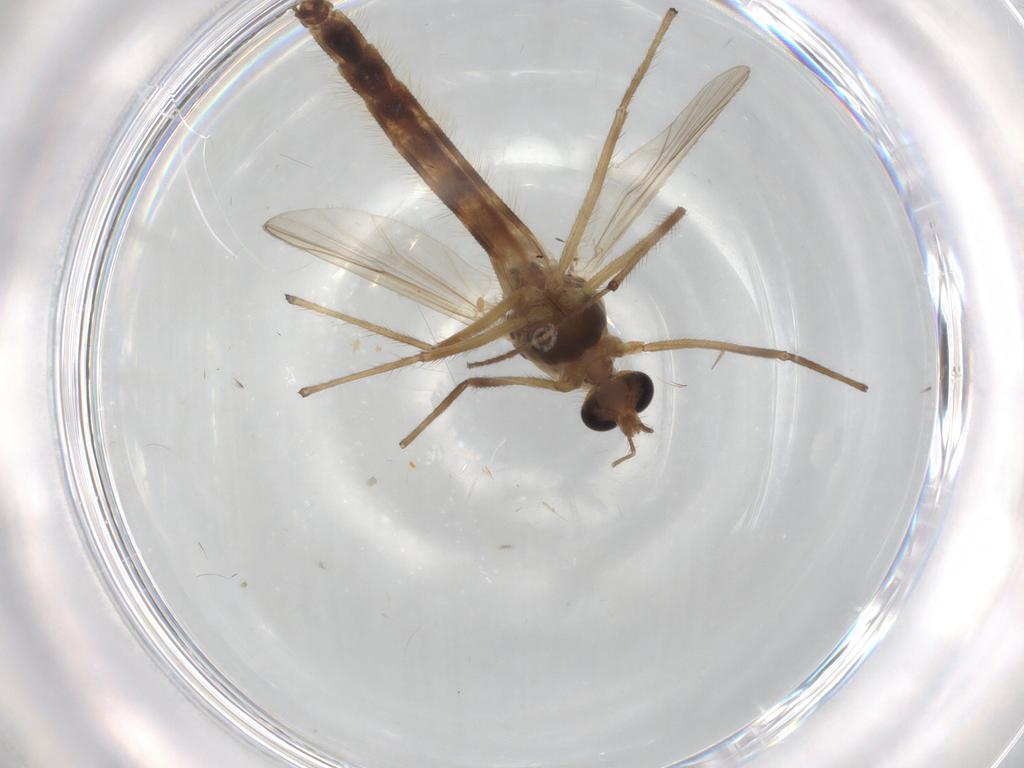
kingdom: Animalia
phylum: Arthropoda
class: Insecta
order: Diptera
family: Chironomidae
